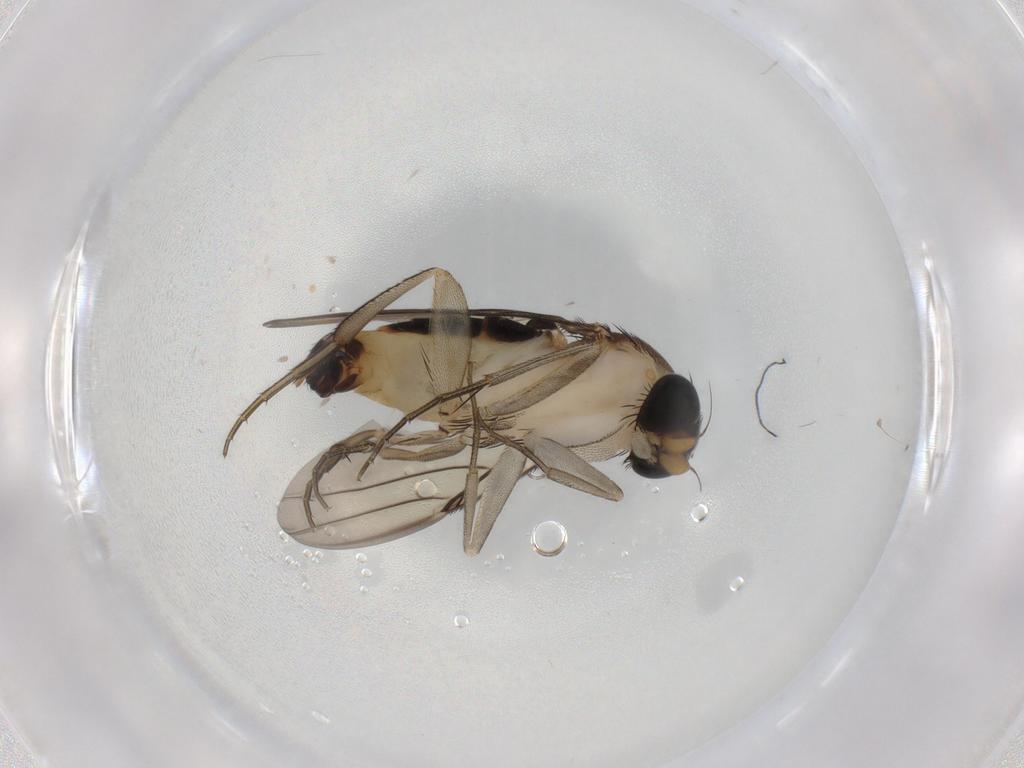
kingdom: Animalia
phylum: Arthropoda
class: Insecta
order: Diptera
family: Phoridae
